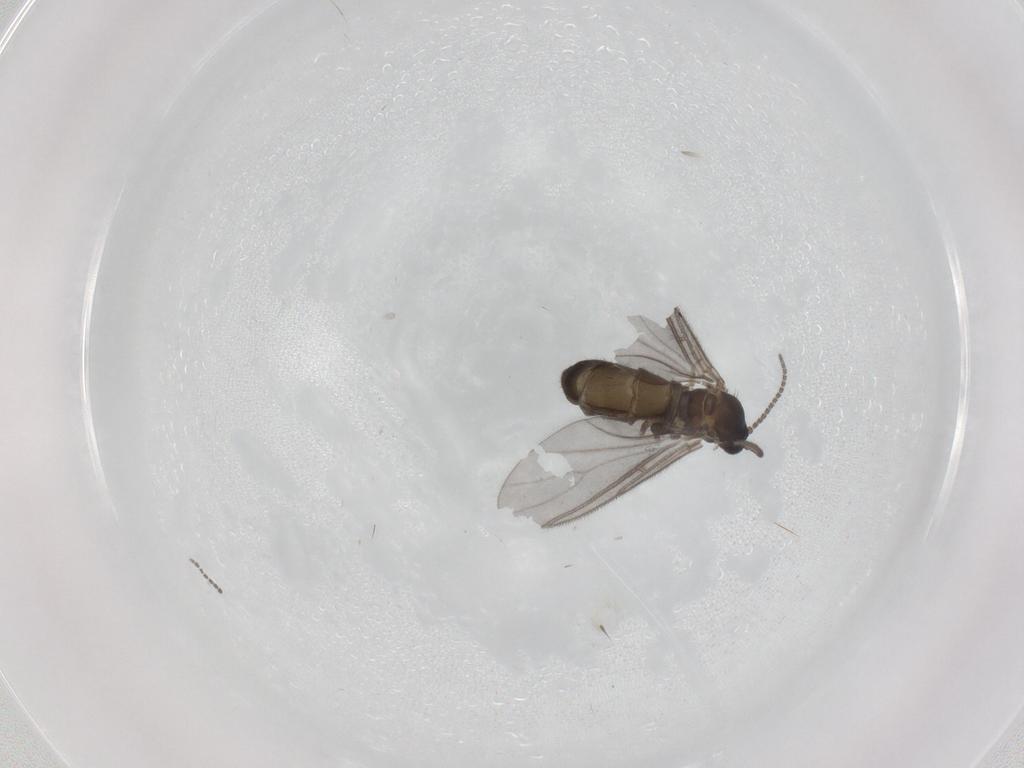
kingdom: Animalia
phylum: Arthropoda
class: Insecta
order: Diptera
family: Sciaridae
